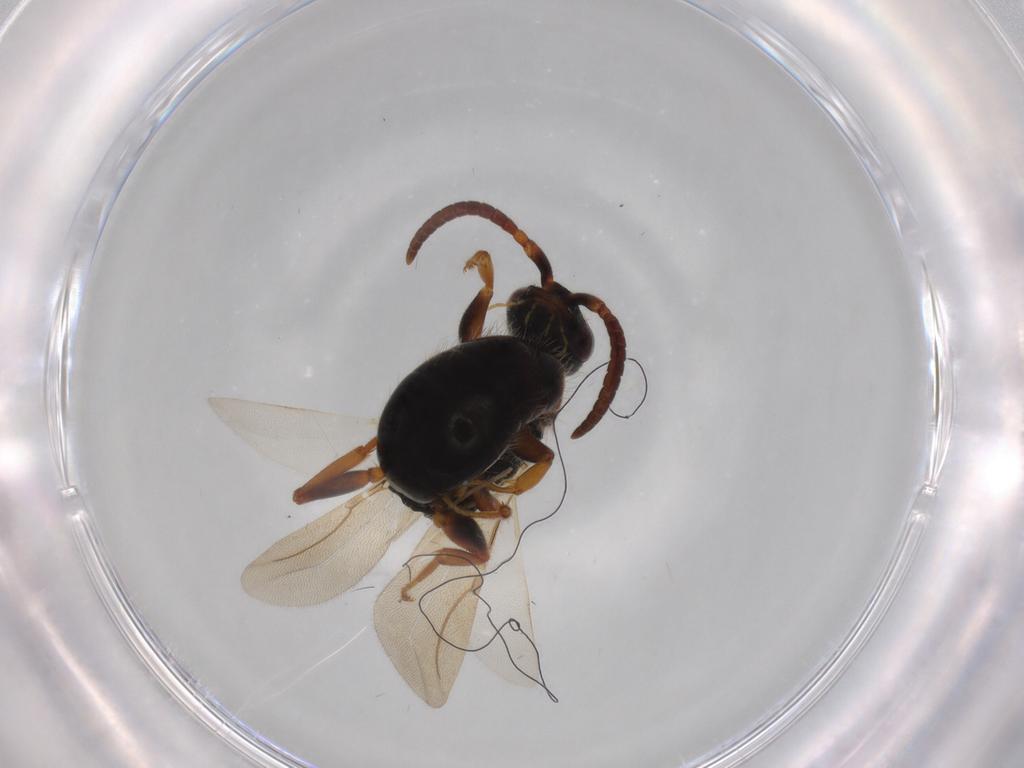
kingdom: Animalia
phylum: Arthropoda
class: Insecta
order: Hymenoptera
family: Bethylidae
